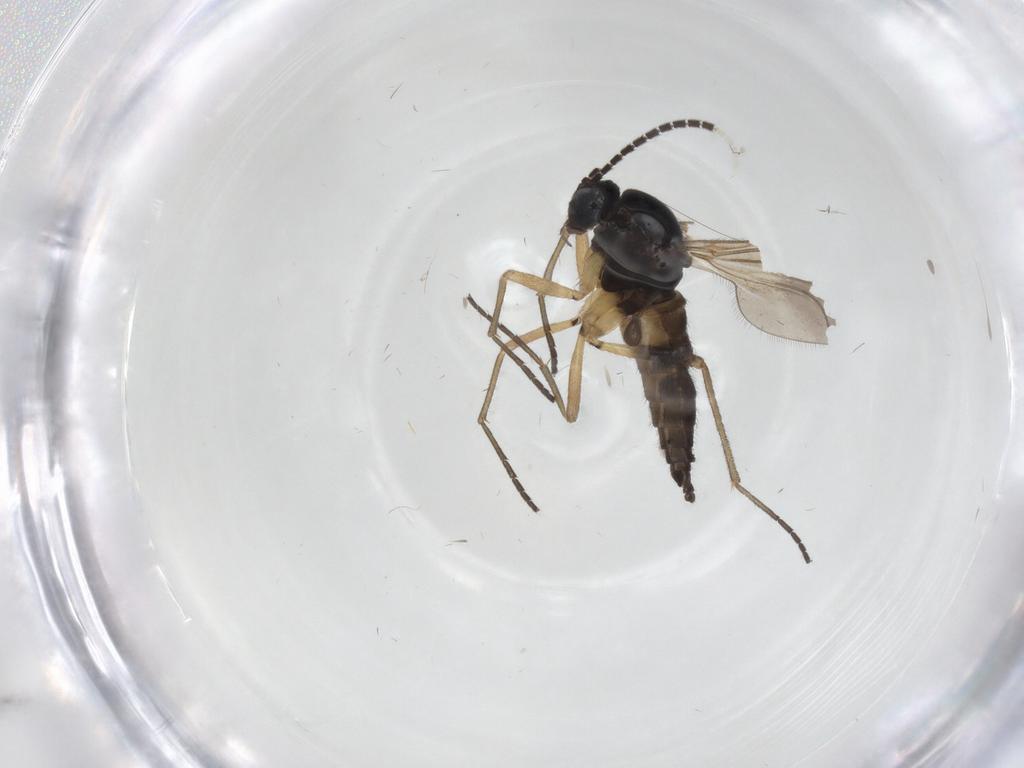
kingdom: Animalia
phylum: Arthropoda
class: Insecta
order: Diptera
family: Sciaridae
